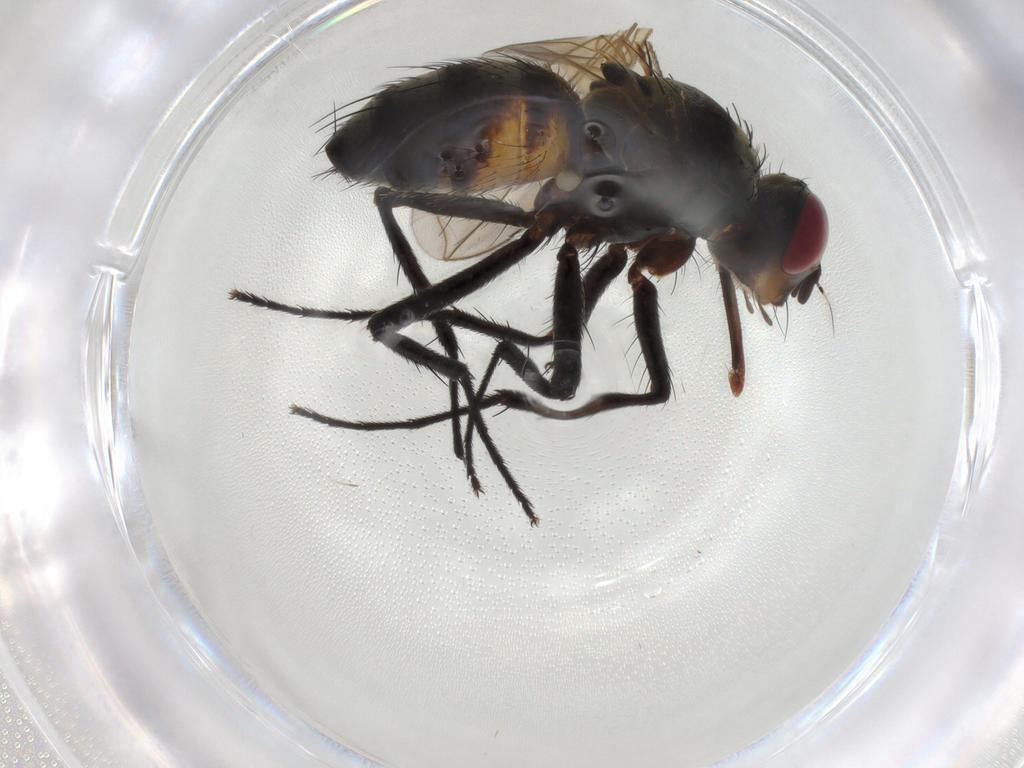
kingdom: Animalia
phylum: Arthropoda
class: Insecta
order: Diptera
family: Tachinidae
